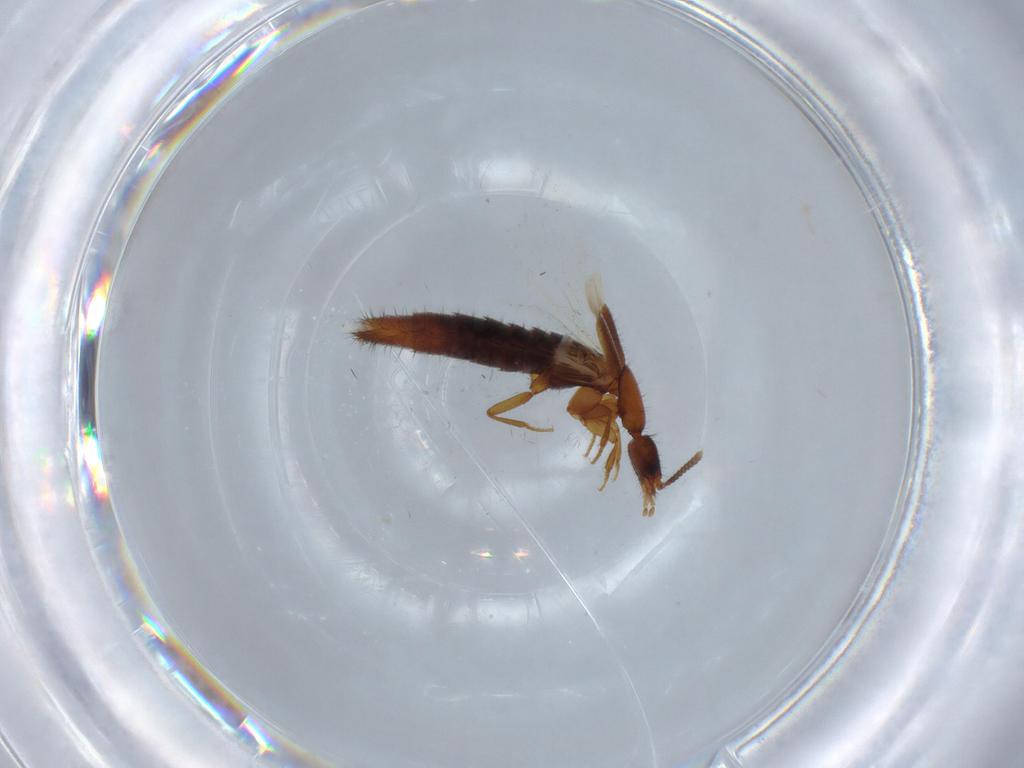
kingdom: Animalia
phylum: Arthropoda
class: Insecta
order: Coleoptera
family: Staphylinidae
